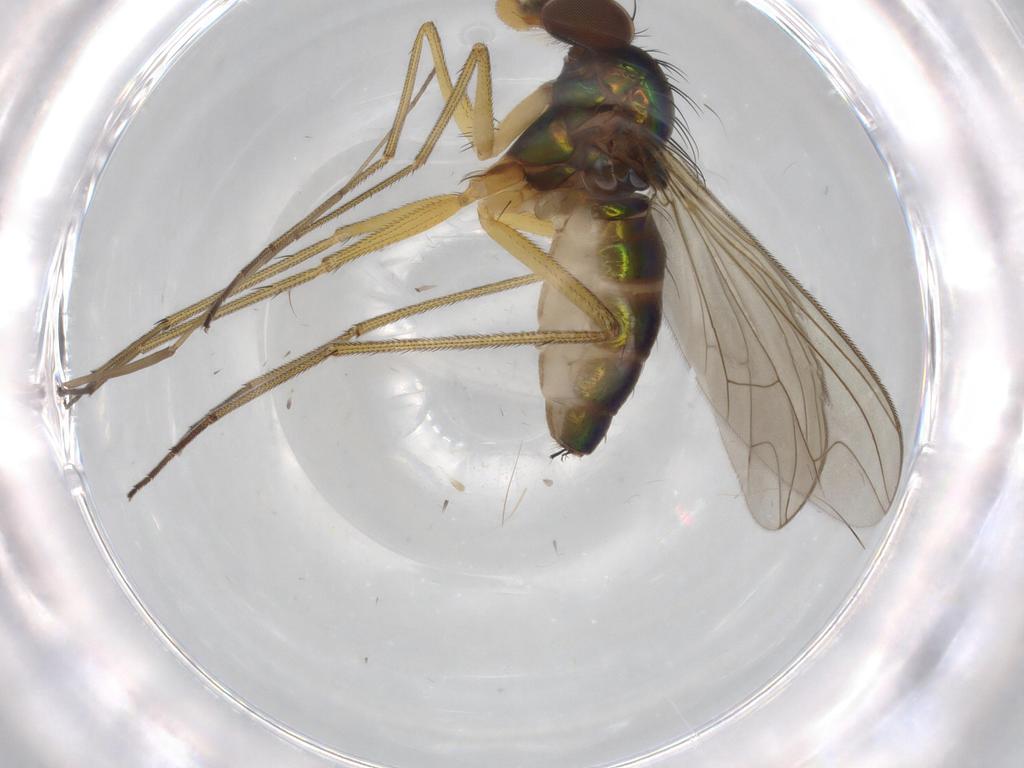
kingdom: Animalia
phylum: Arthropoda
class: Insecta
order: Diptera
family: Dolichopodidae
